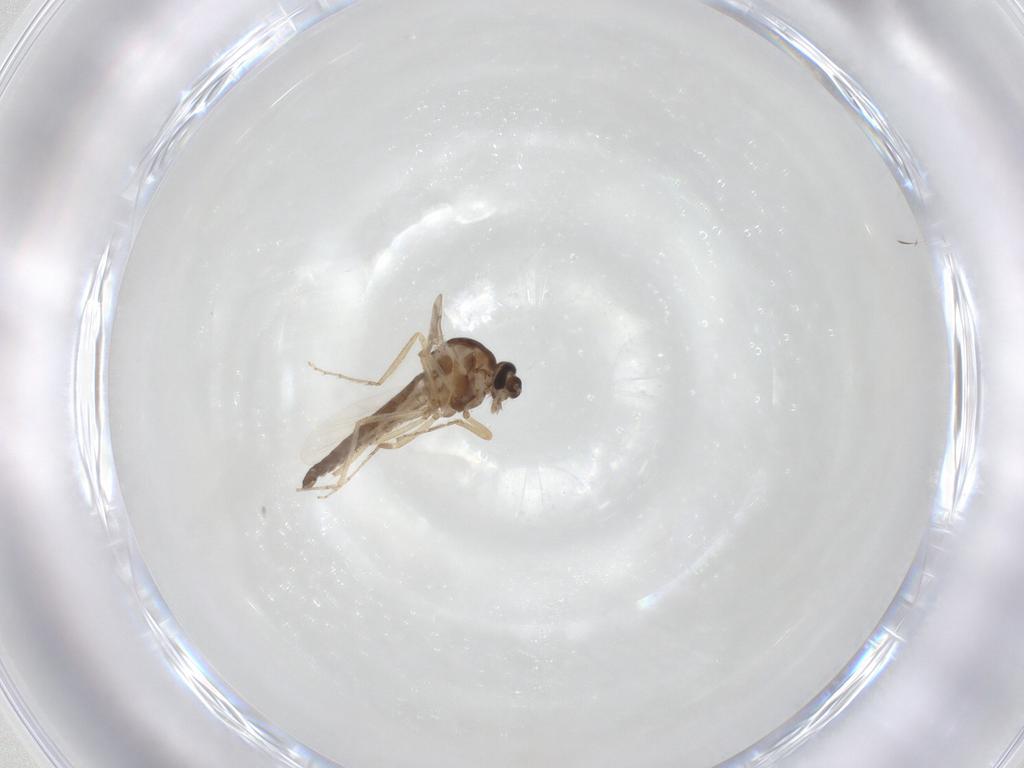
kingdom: Animalia
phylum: Arthropoda
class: Insecta
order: Diptera
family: Ceratopogonidae
